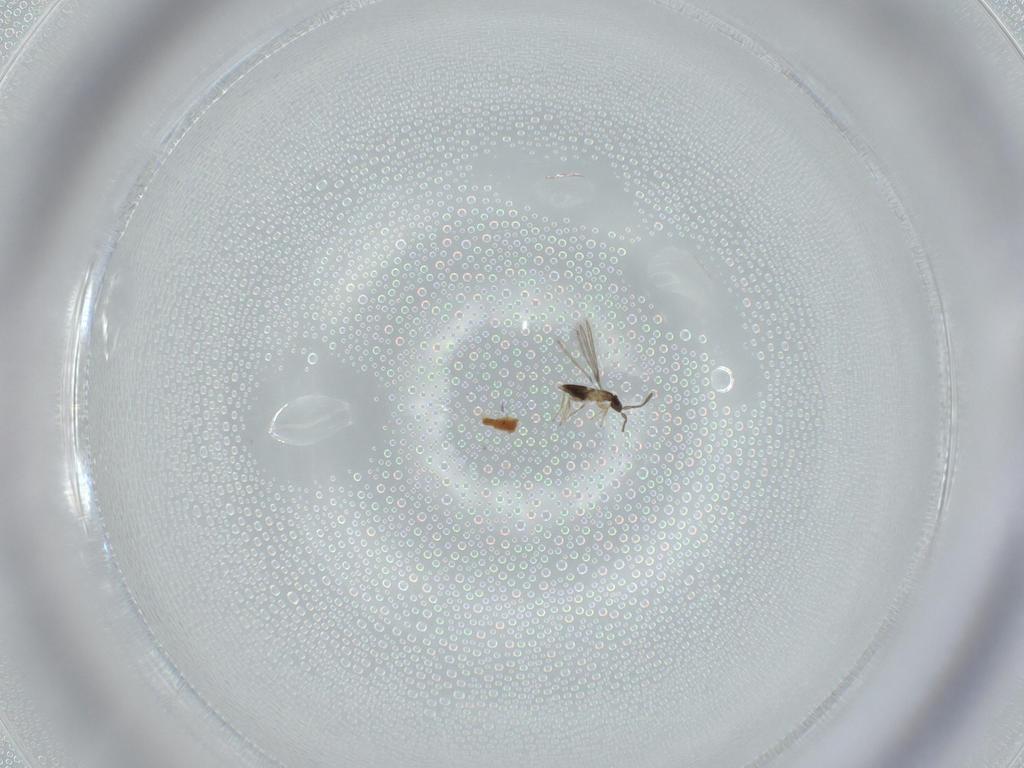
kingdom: Animalia
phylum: Arthropoda
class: Insecta
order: Hymenoptera
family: Mymaridae
